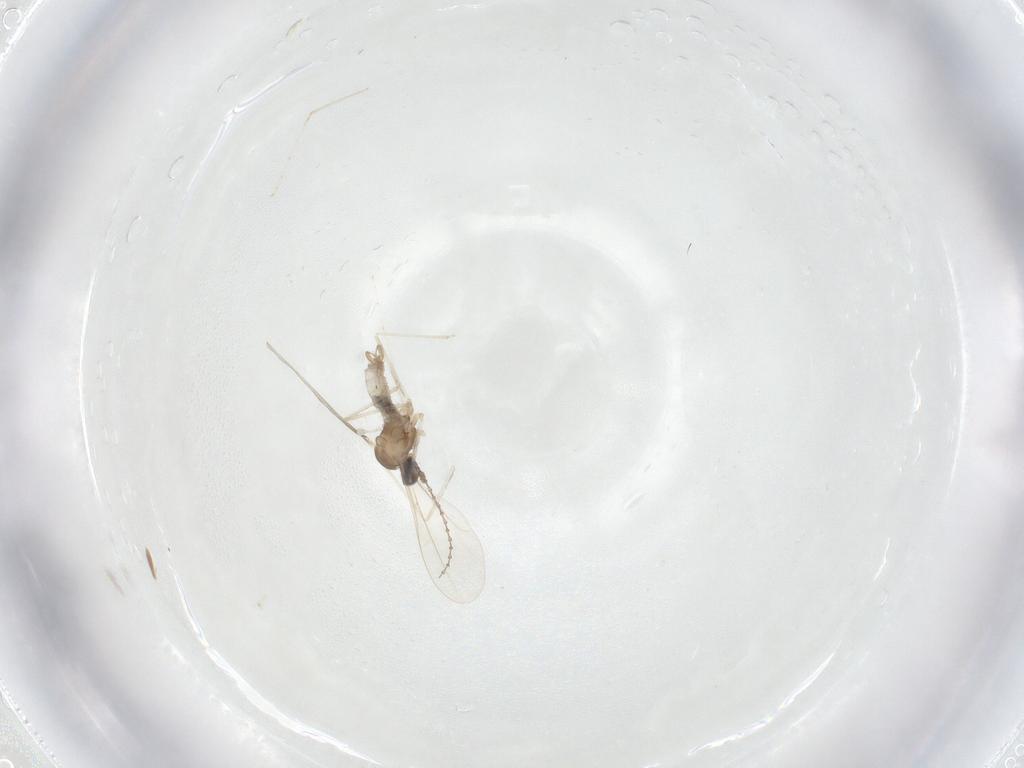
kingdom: Animalia
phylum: Arthropoda
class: Insecta
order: Diptera
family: Cecidomyiidae
